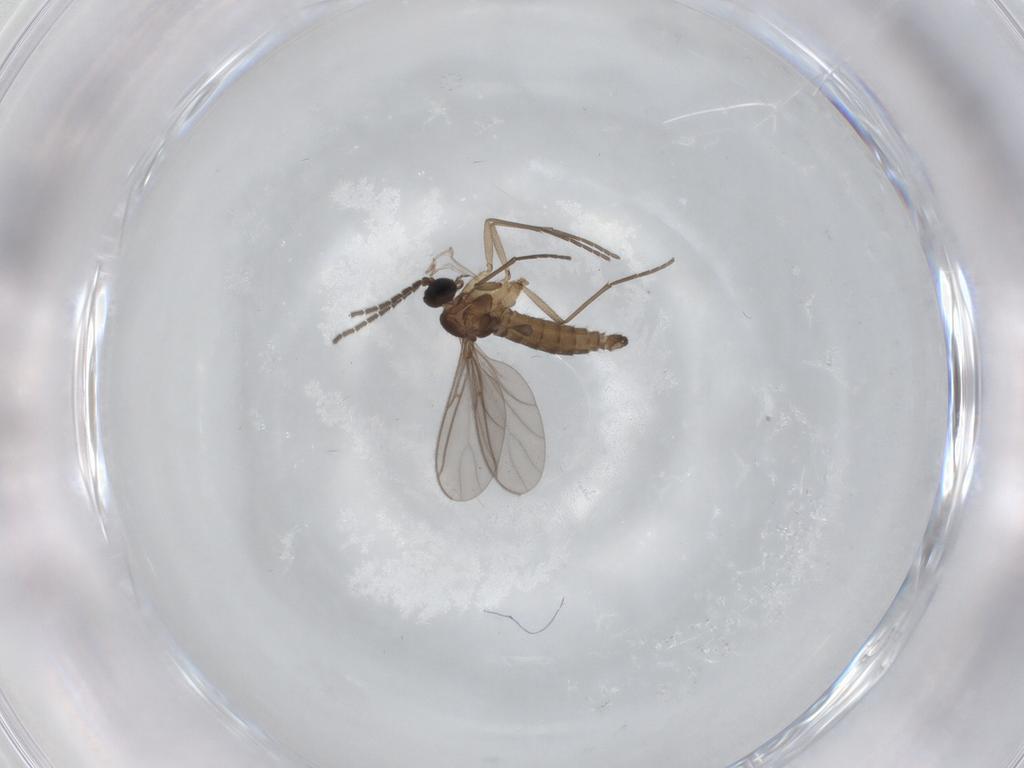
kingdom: Animalia
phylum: Arthropoda
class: Insecta
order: Diptera
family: Sciaridae
